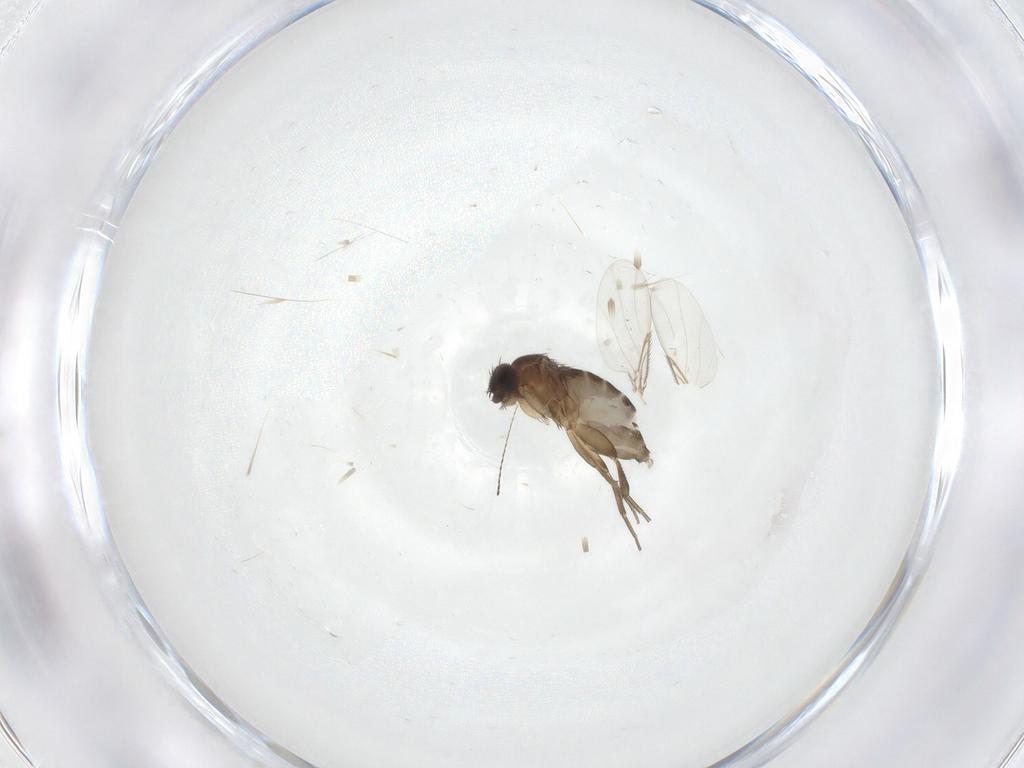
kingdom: Animalia
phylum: Arthropoda
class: Insecta
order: Diptera
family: Phoridae
